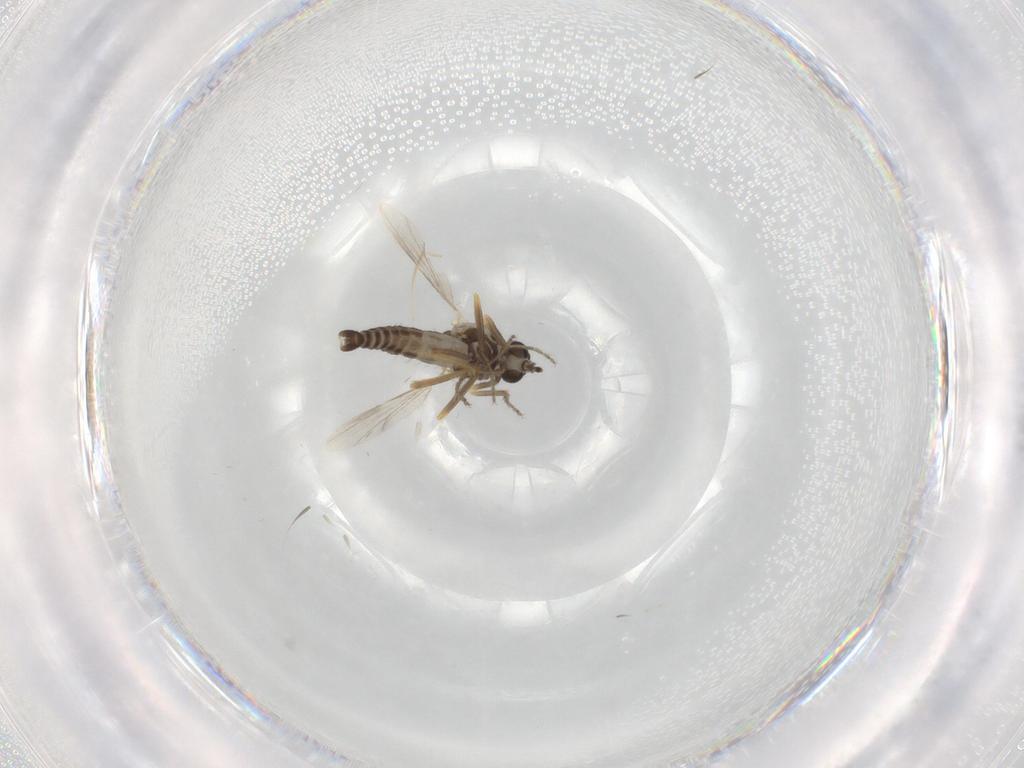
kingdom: Animalia
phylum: Arthropoda
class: Insecta
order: Diptera
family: Ceratopogonidae
